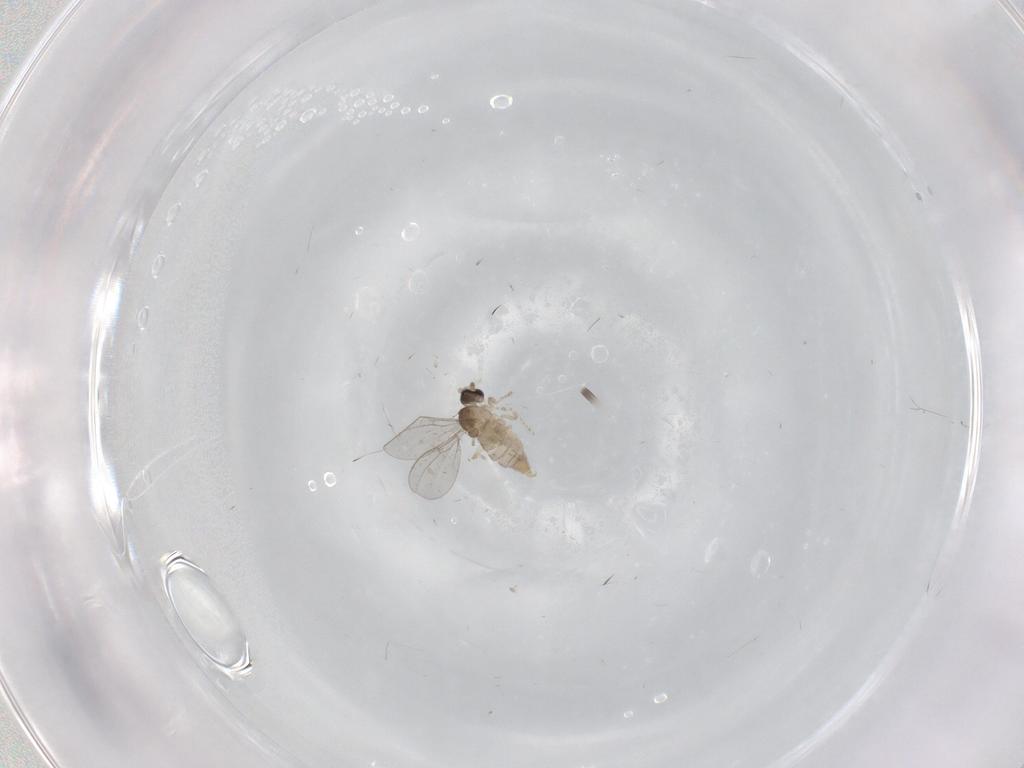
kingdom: Animalia
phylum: Arthropoda
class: Insecta
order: Diptera
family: Cecidomyiidae
